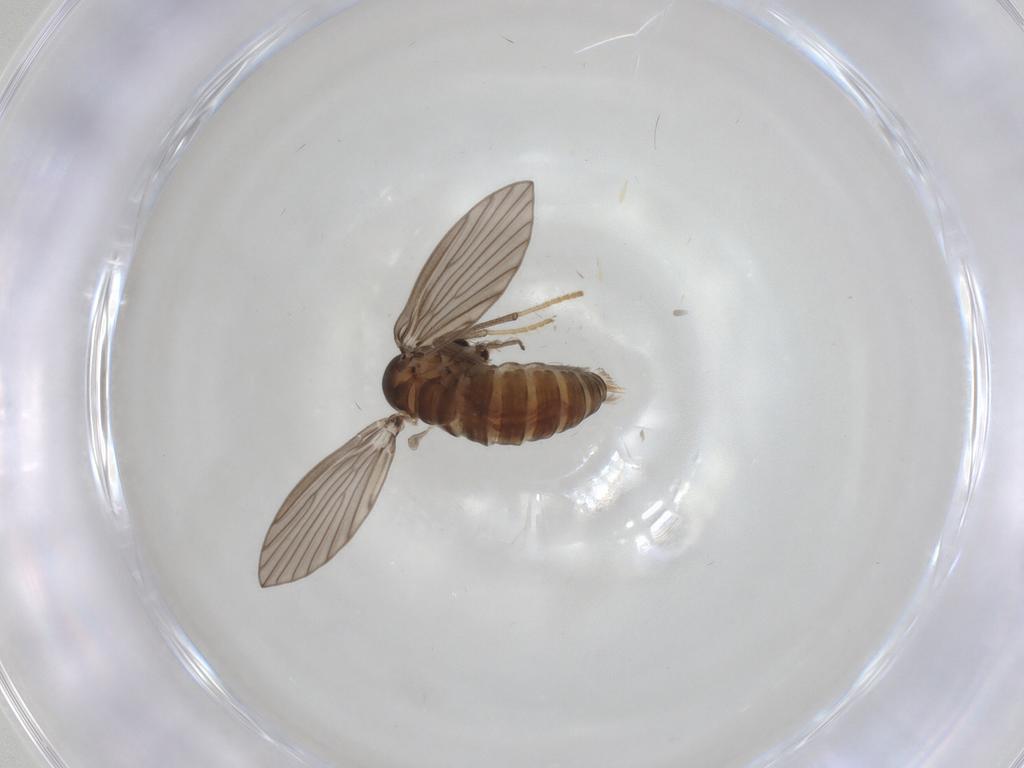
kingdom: Animalia
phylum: Arthropoda
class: Insecta
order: Diptera
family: Psychodidae
